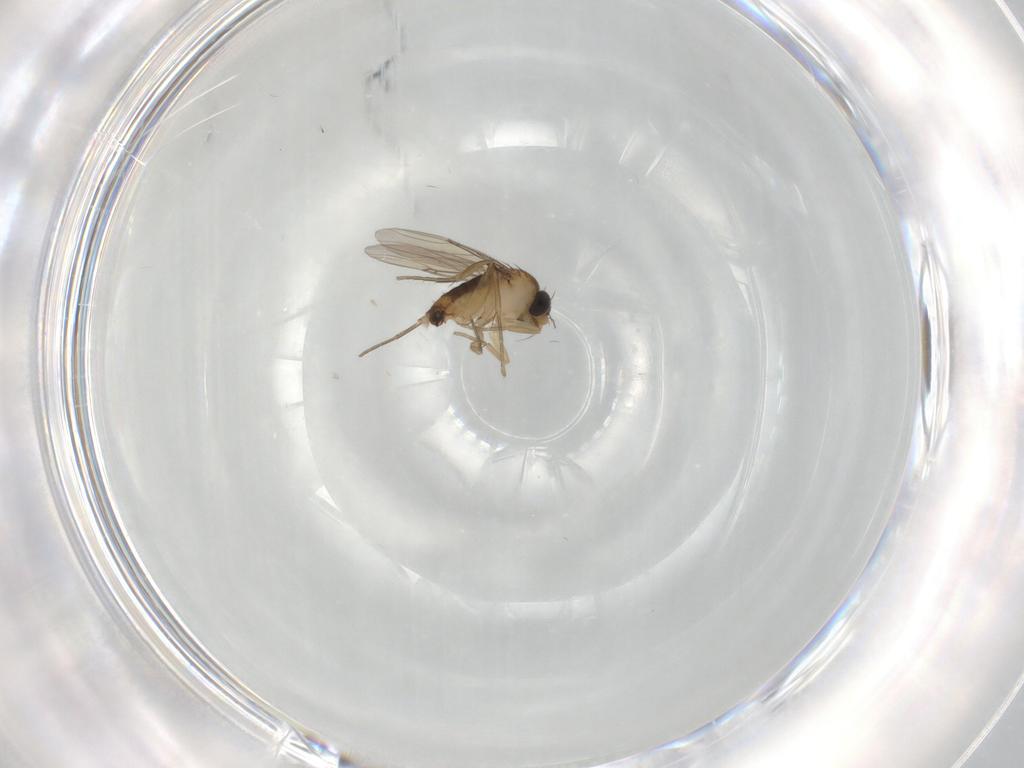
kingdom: Animalia
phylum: Arthropoda
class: Insecta
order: Diptera
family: Phoridae
